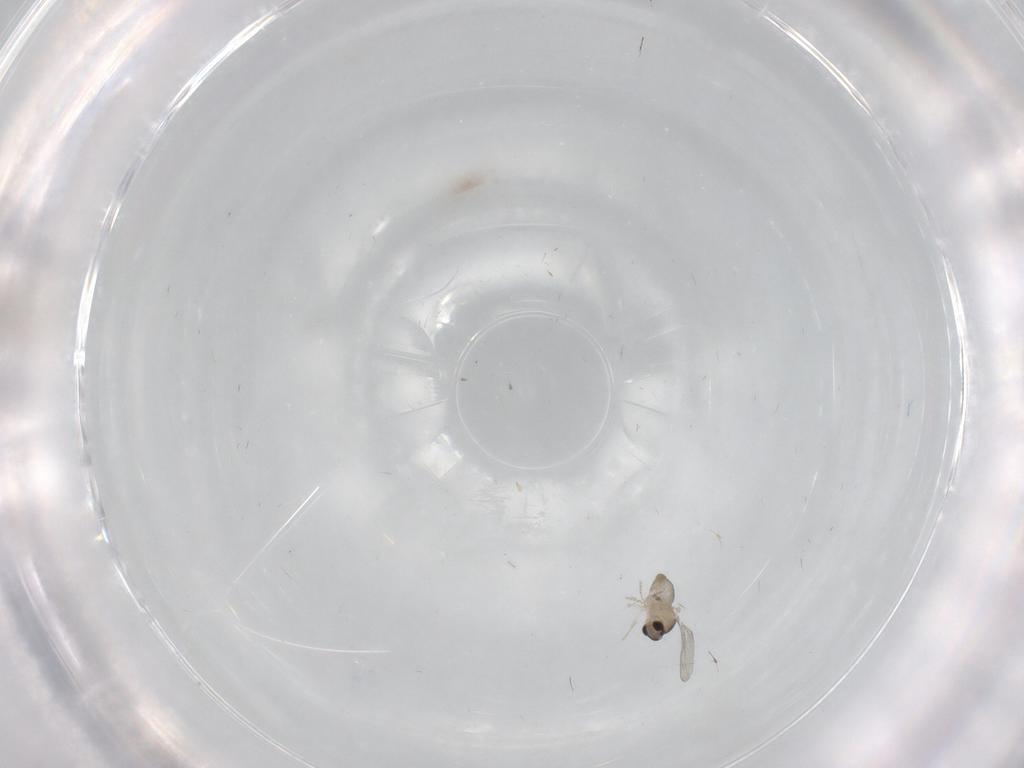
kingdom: Animalia
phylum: Arthropoda
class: Insecta
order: Diptera
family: Cecidomyiidae
